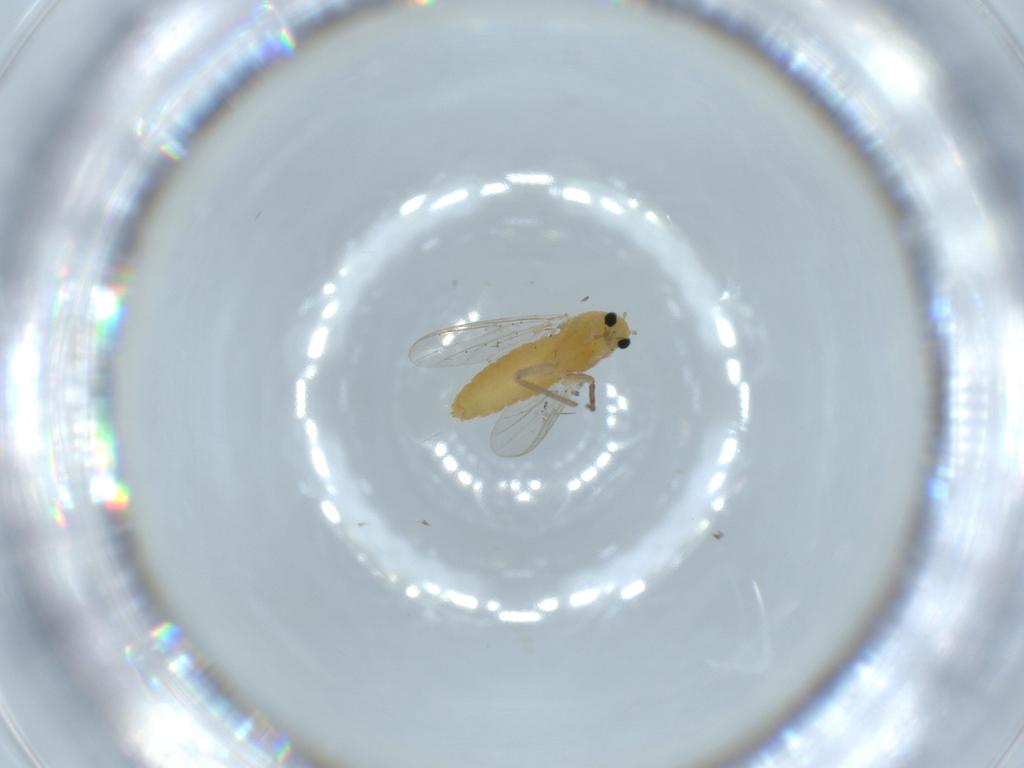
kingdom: Animalia
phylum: Arthropoda
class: Insecta
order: Diptera
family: Chironomidae
